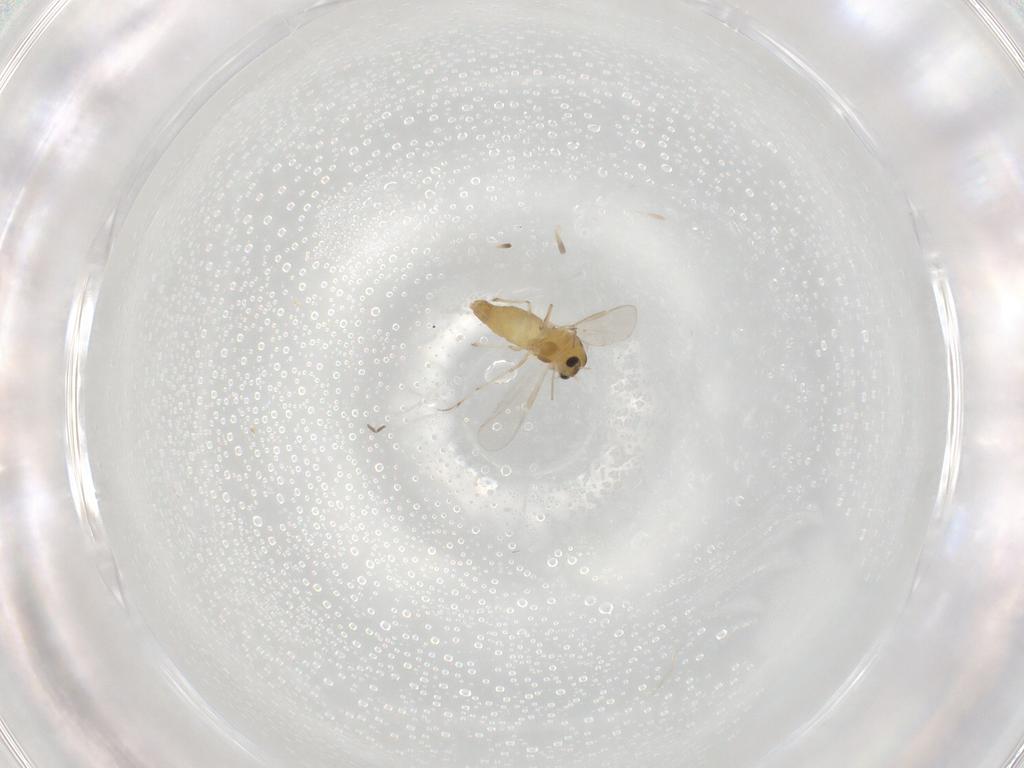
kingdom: Animalia
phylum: Arthropoda
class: Insecta
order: Diptera
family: Chironomidae
